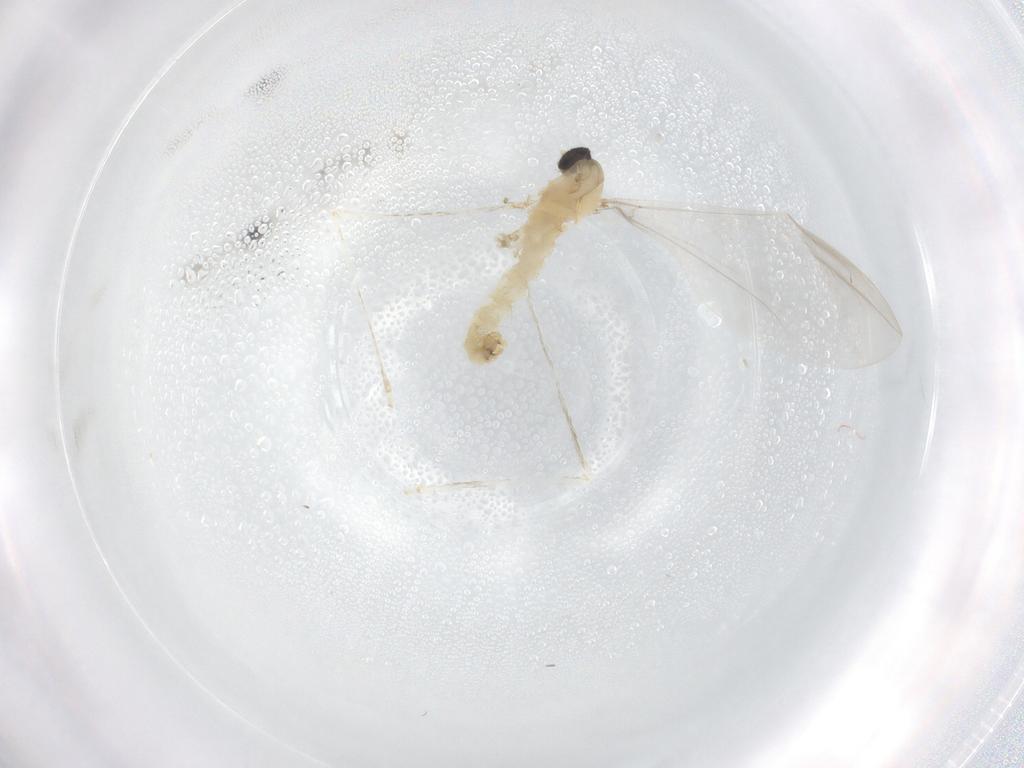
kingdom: Animalia
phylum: Arthropoda
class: Insecta
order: Diptera
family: Cecidomyiidae
